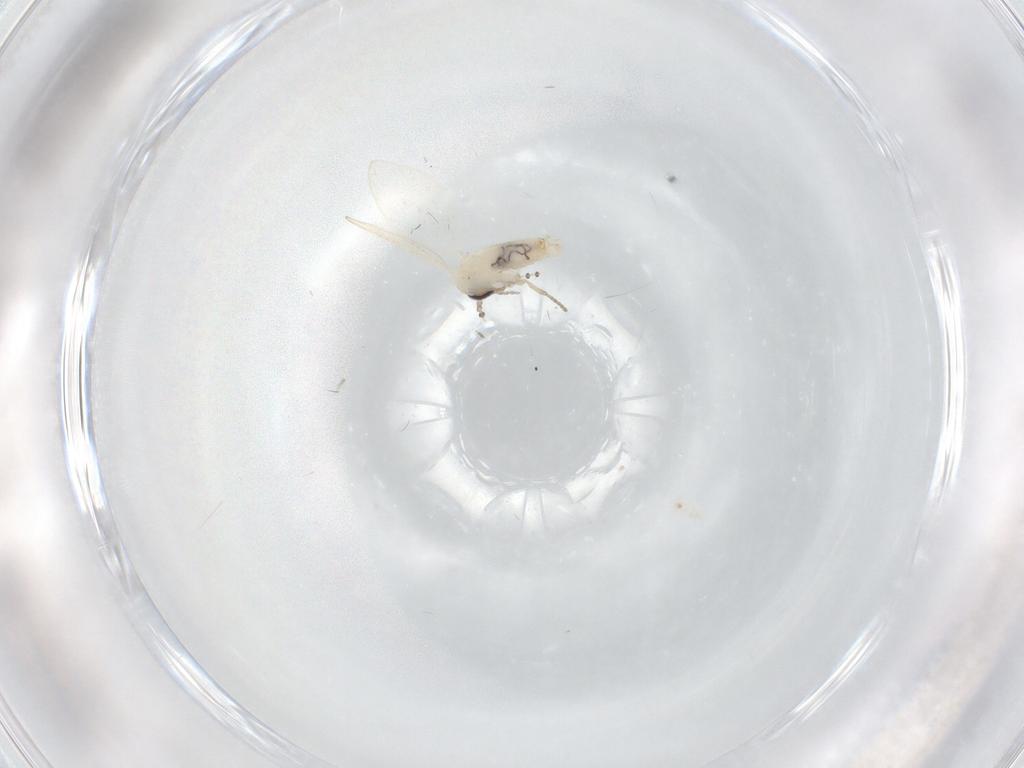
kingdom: Animalia
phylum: Arthropoda
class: Insecta
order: Diptera
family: Psychodidae
